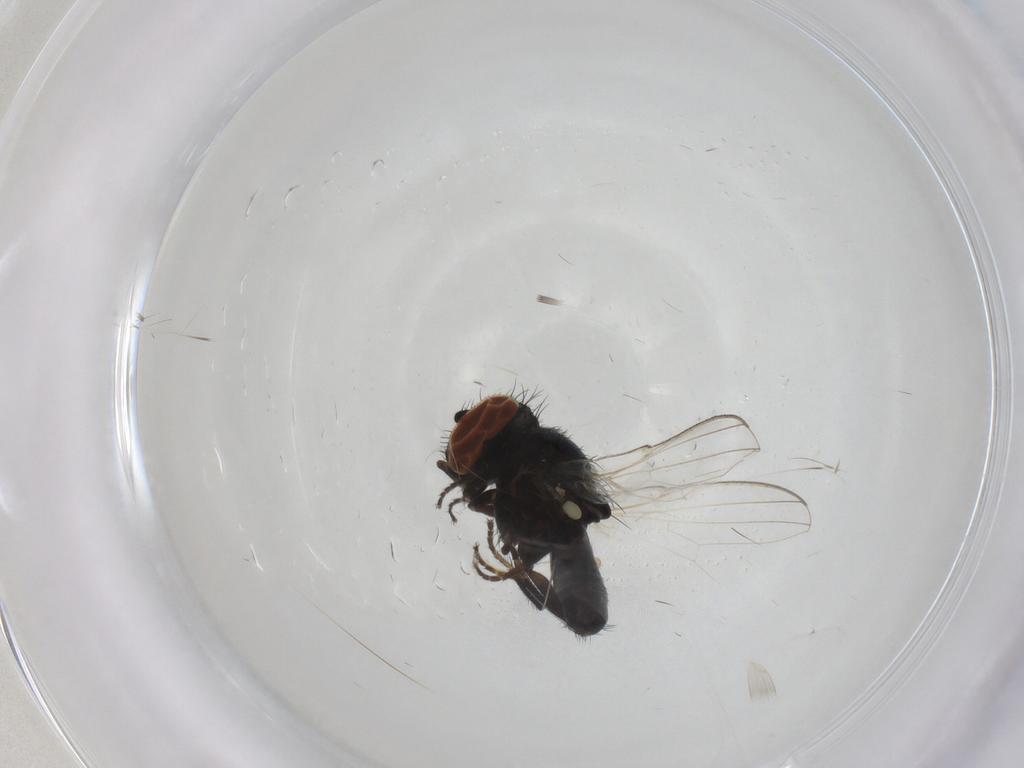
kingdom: Animalia
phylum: Arthropoda
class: Insecta
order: Diptera
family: Milichiidae
